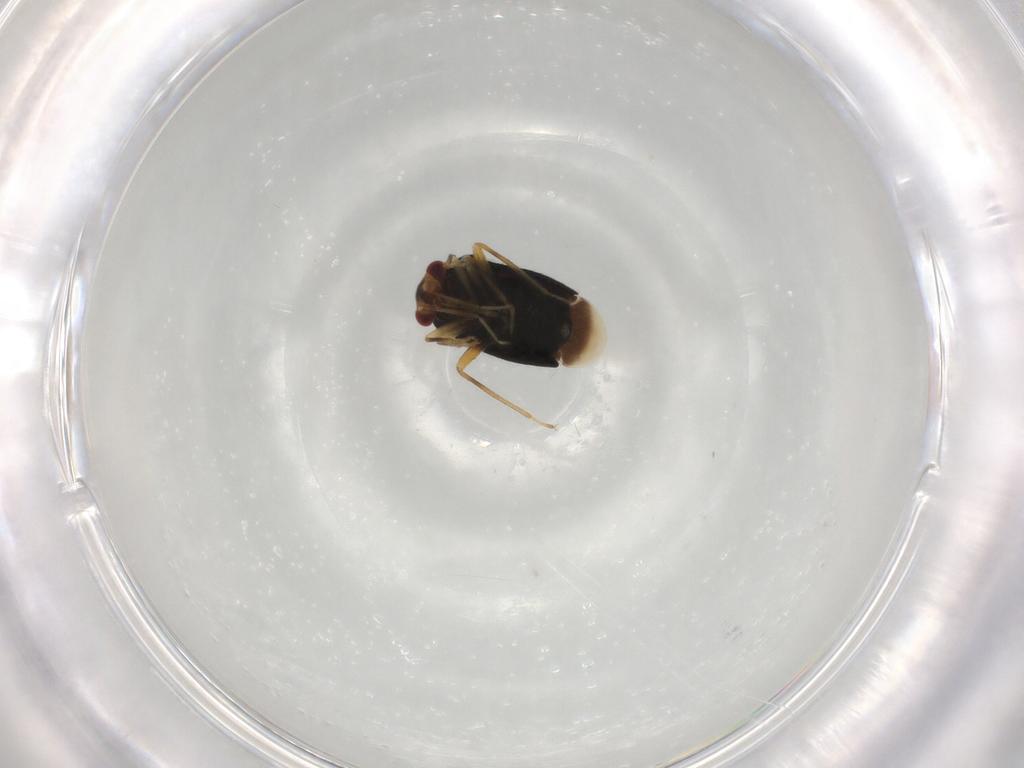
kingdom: Animalia
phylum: Arthropoda
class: Insecta
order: Hemiptera
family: Miridae
